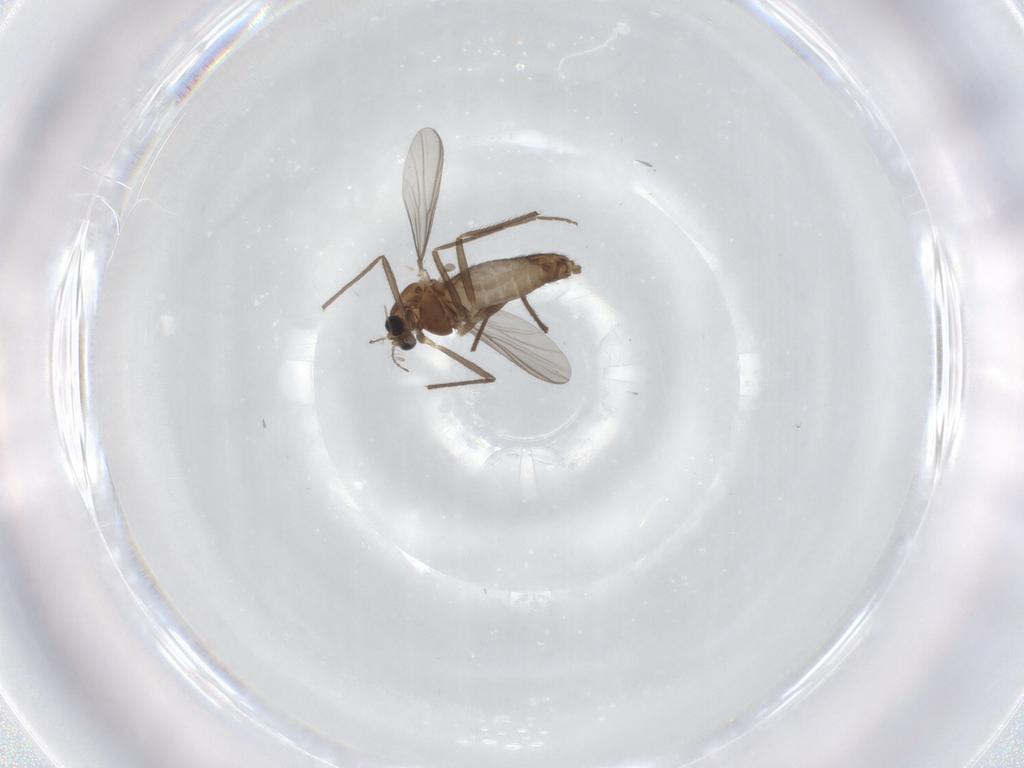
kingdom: Animalia
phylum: Arthropoda
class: Insecta
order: Diptera
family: Chironomidae
